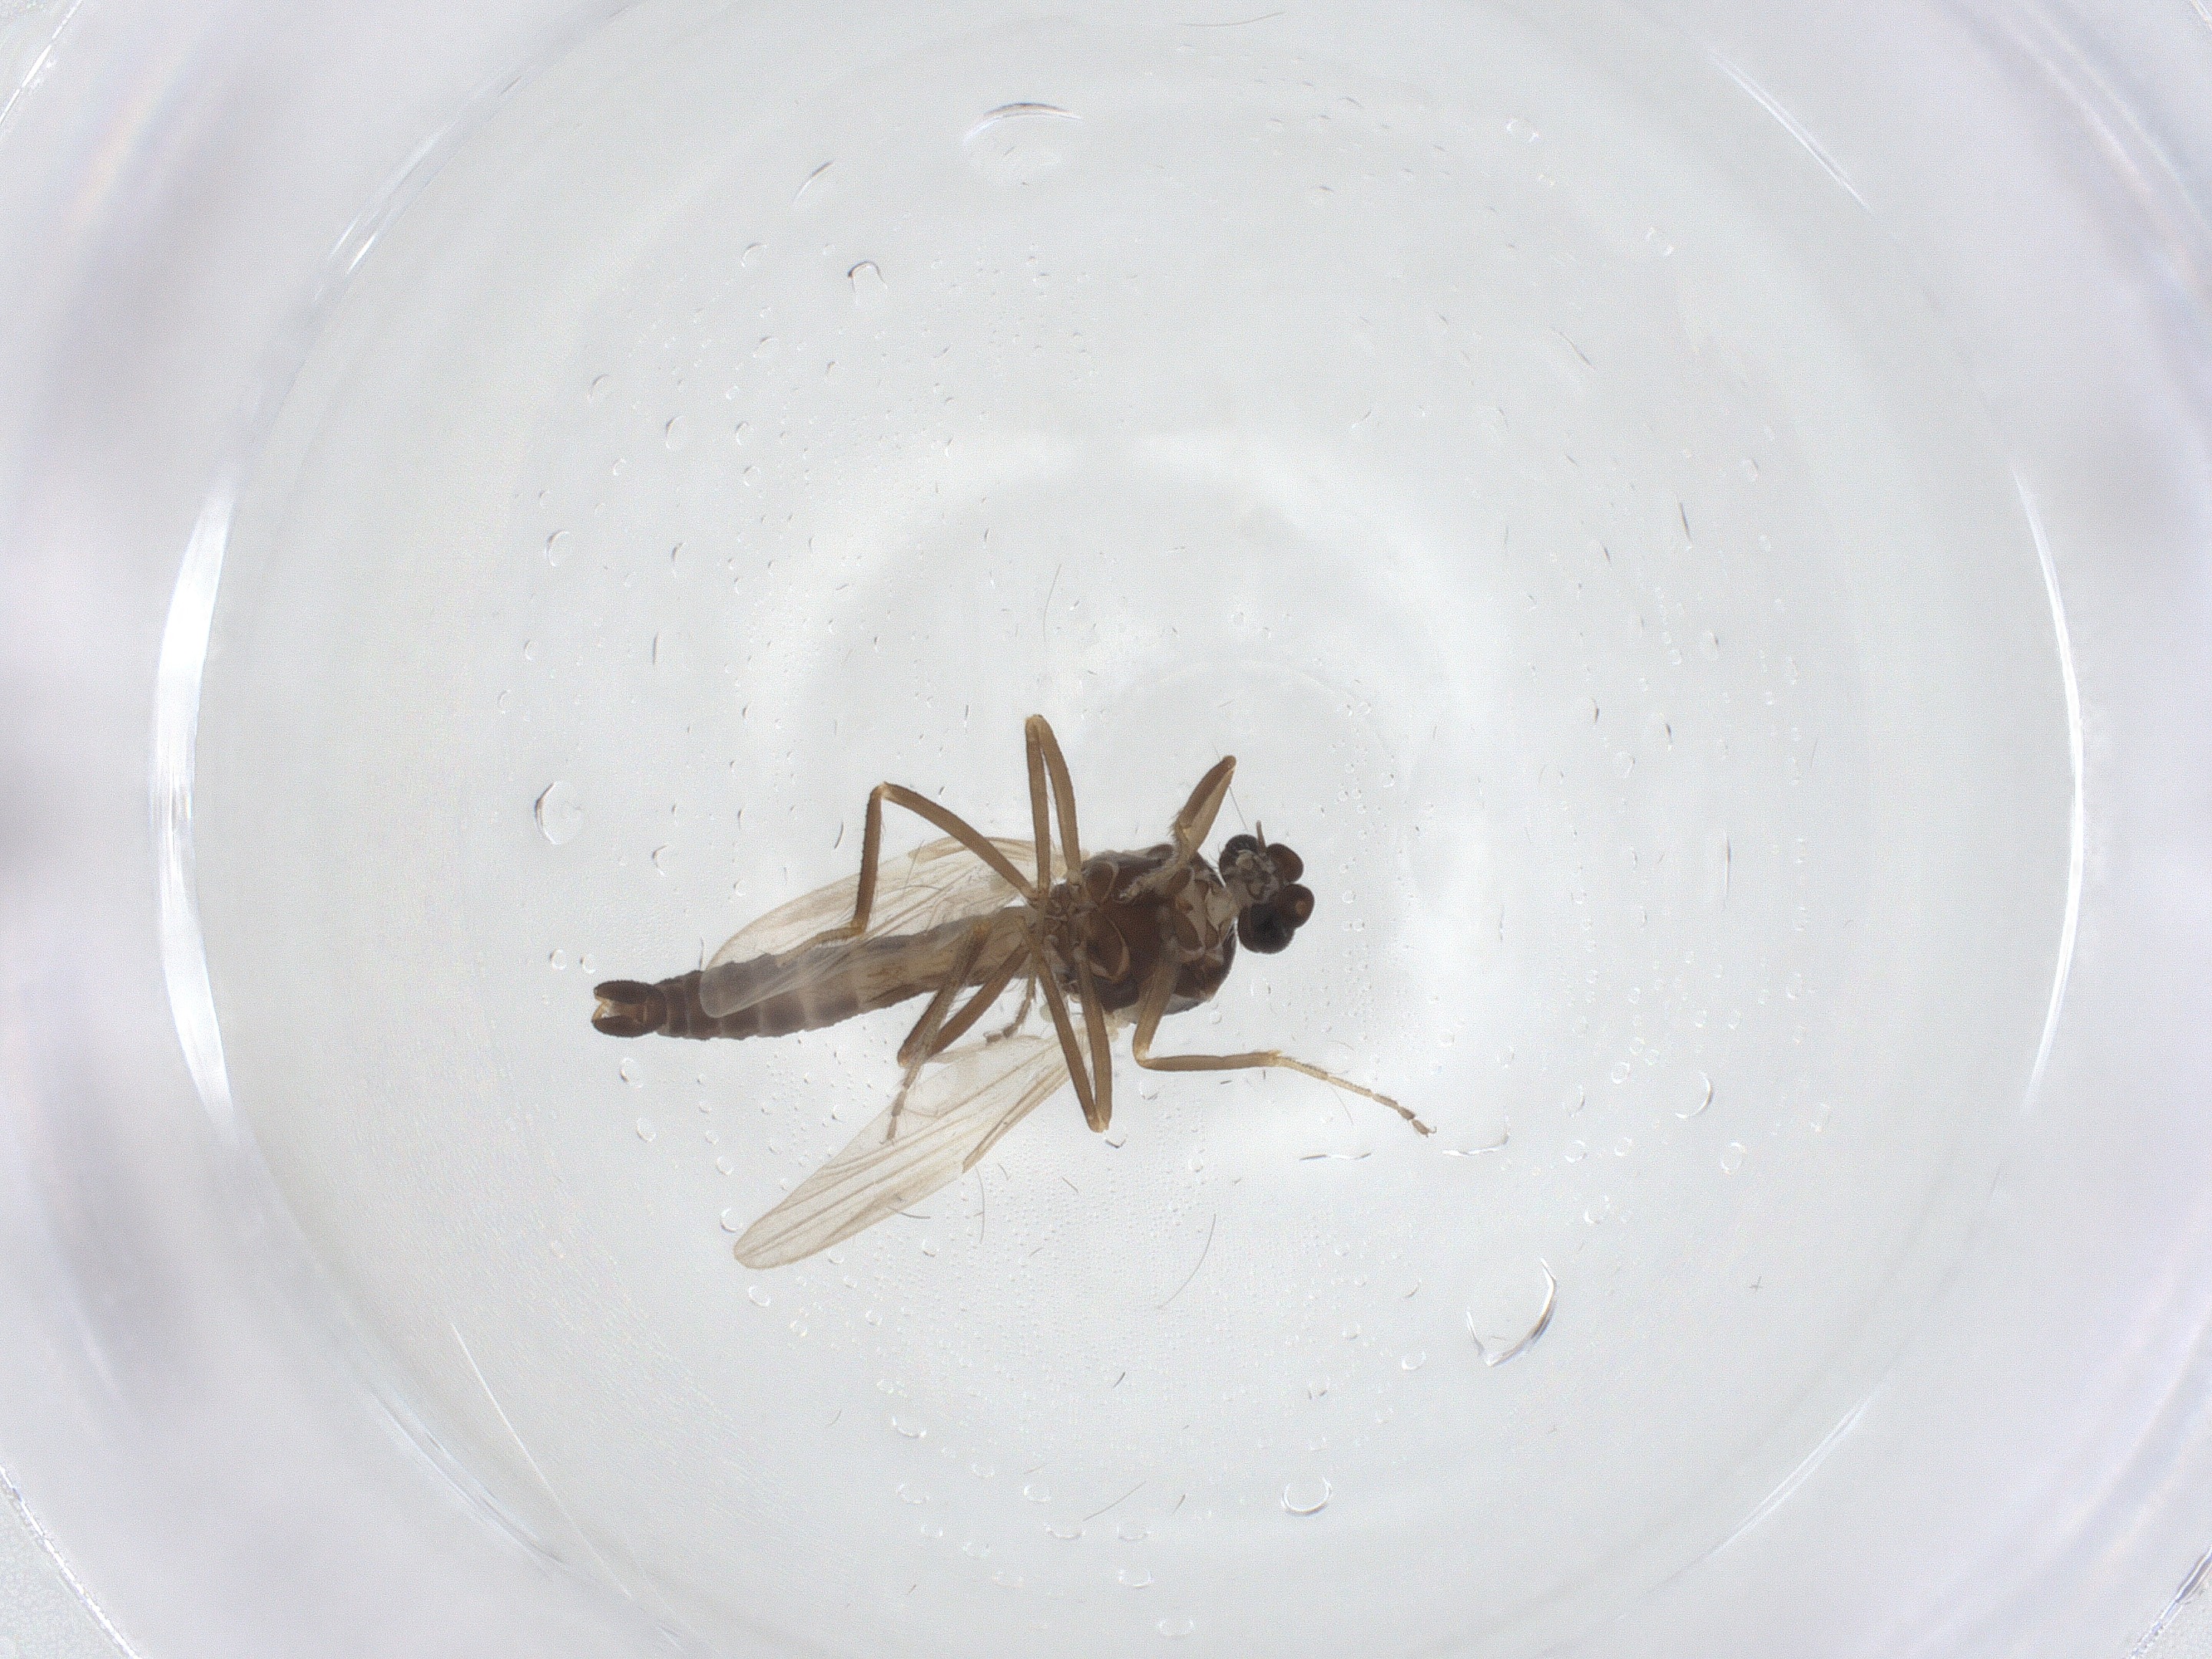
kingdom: Animalia
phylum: Arthropoda
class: Insecta
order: Diptera
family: Ceratopogonidae
